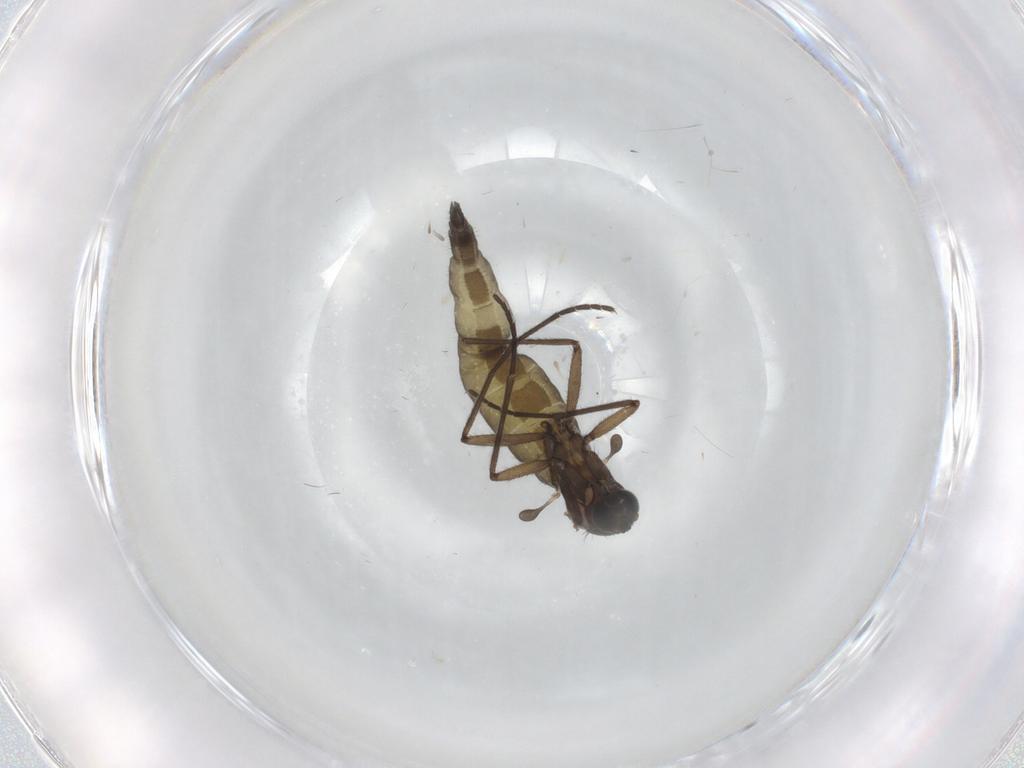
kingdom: Animalia
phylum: Arthropoda
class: Insecta
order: Diptera
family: Sciaridae
